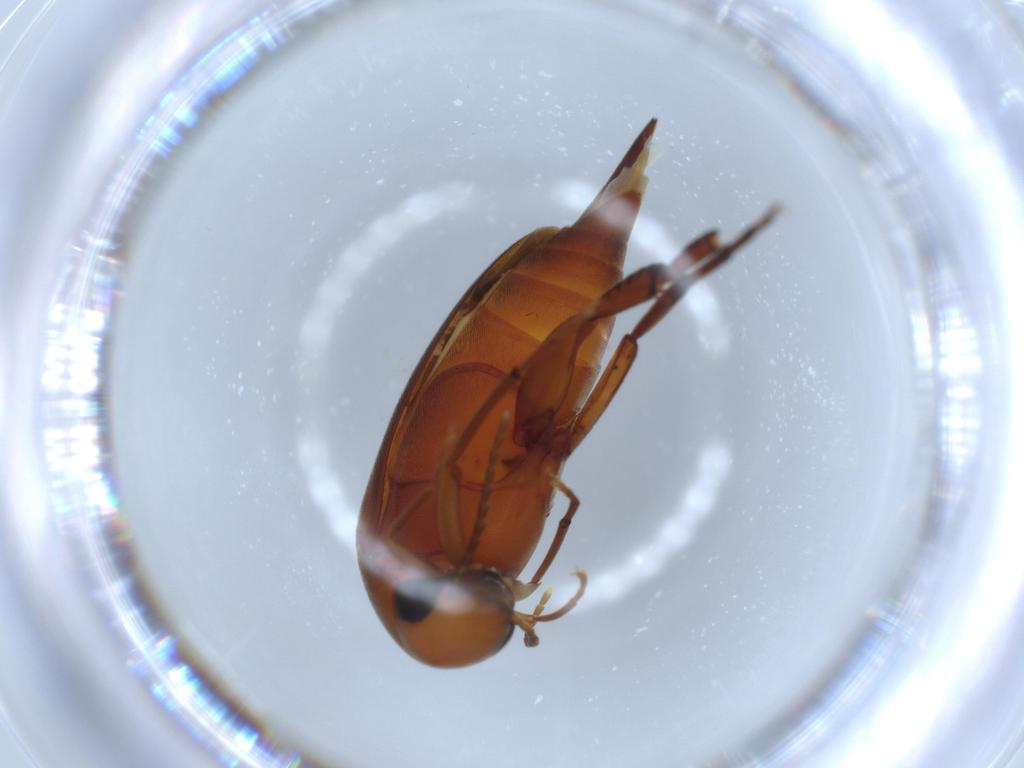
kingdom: Animalia
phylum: Arthropoda
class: Insecta
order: Coleoptera
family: Mordellidae
